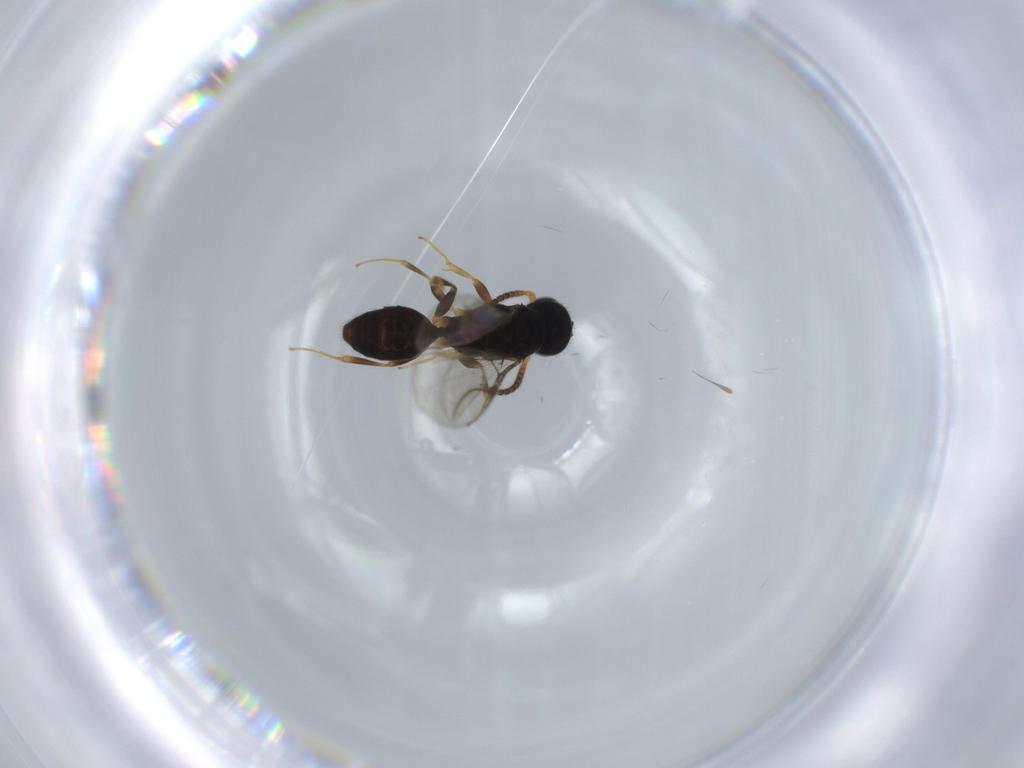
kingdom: Animalia
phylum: Arthropoda
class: Insecta
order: Hymenoptera
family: Bethylidae
